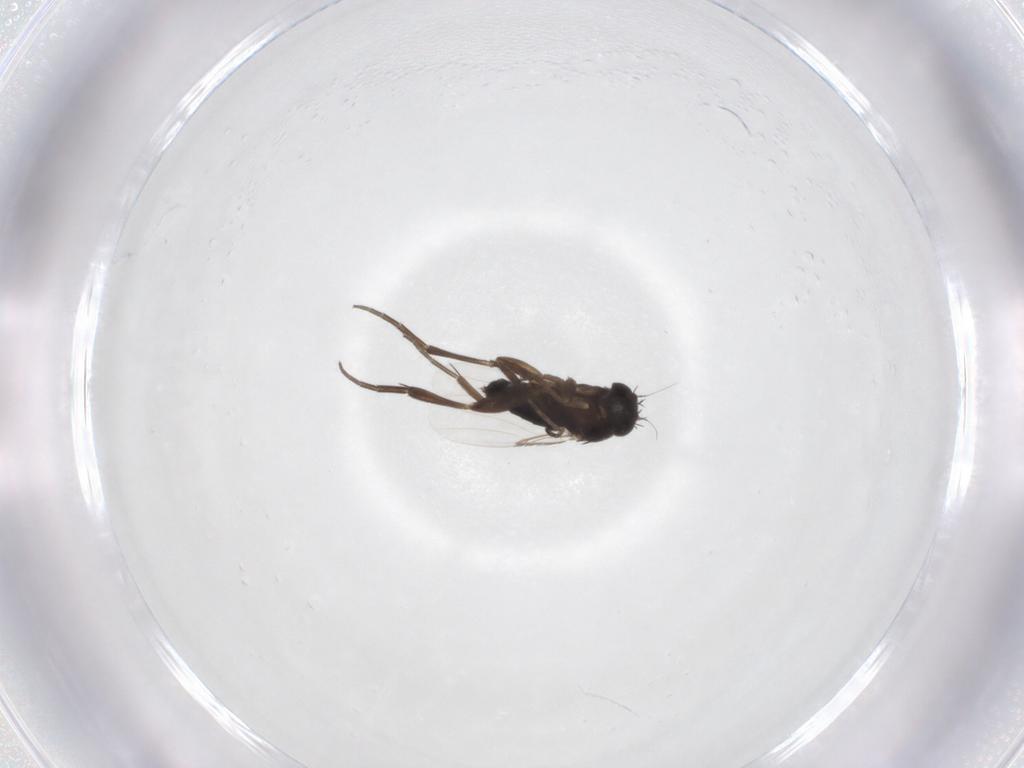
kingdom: Animalia
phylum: Arthropoda
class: Insecta
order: Diptera
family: Phoridae
